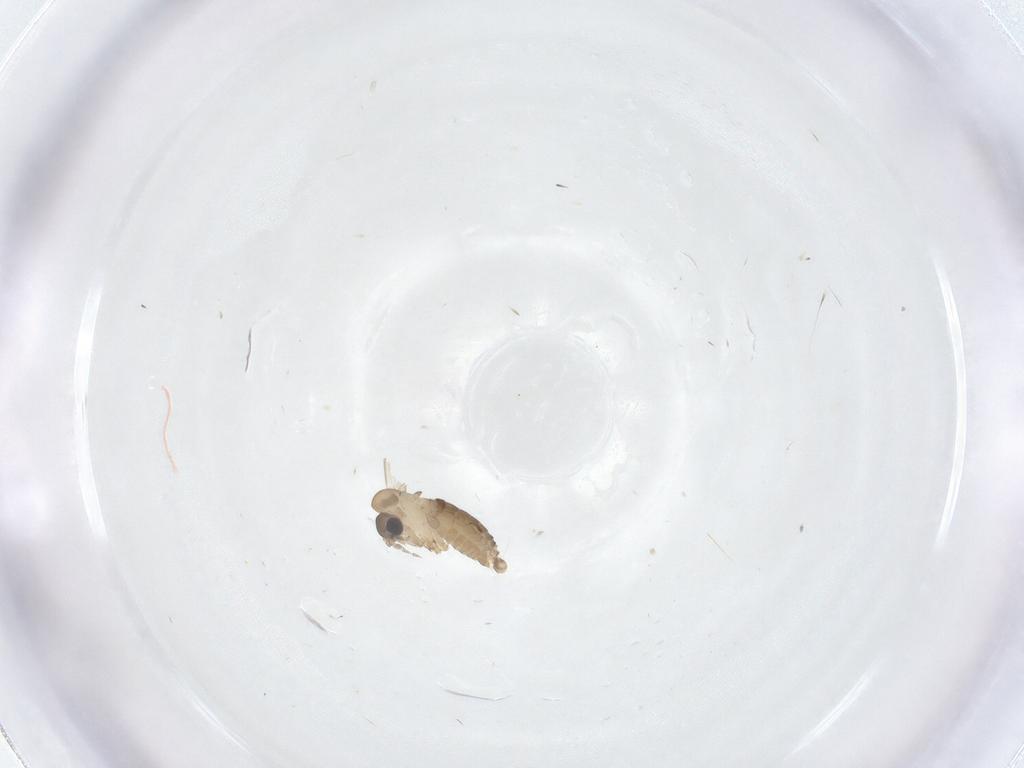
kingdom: Animalia
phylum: Arthropoda
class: Insecta
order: Diptera
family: Psychodidae
